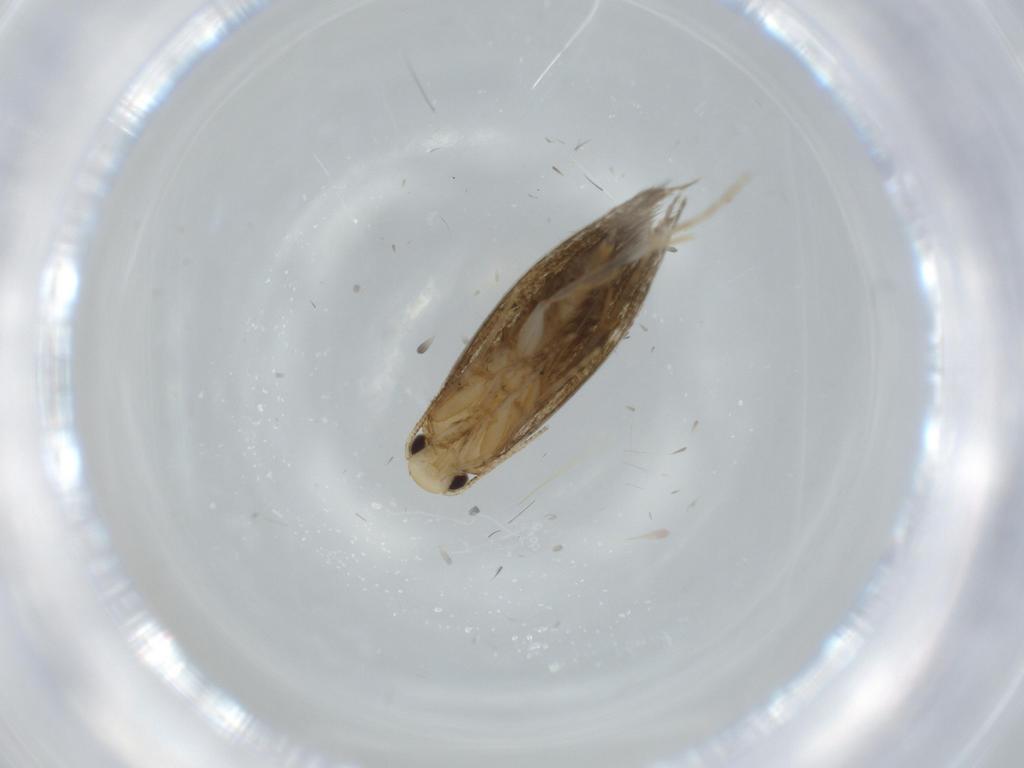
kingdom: Animalia
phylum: Arthropoda
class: Insecta
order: Lepidoptera
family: Tineidae
